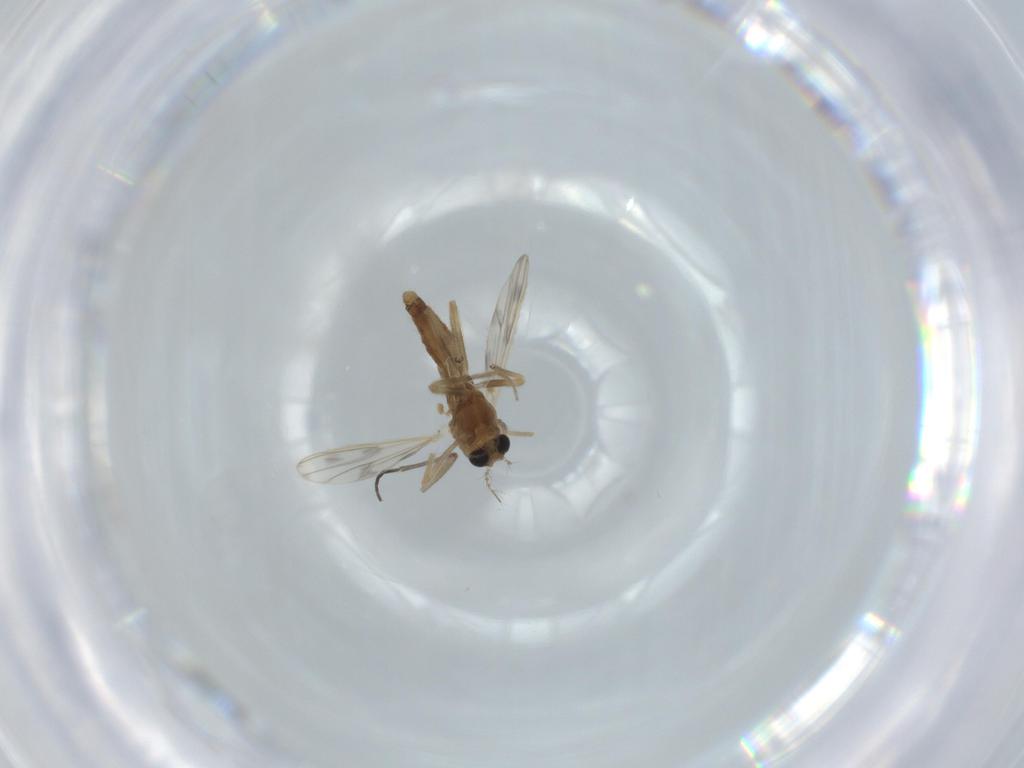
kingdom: Animalia
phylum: Arthropoda
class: Insecta
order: Diptera
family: Chironomidae
